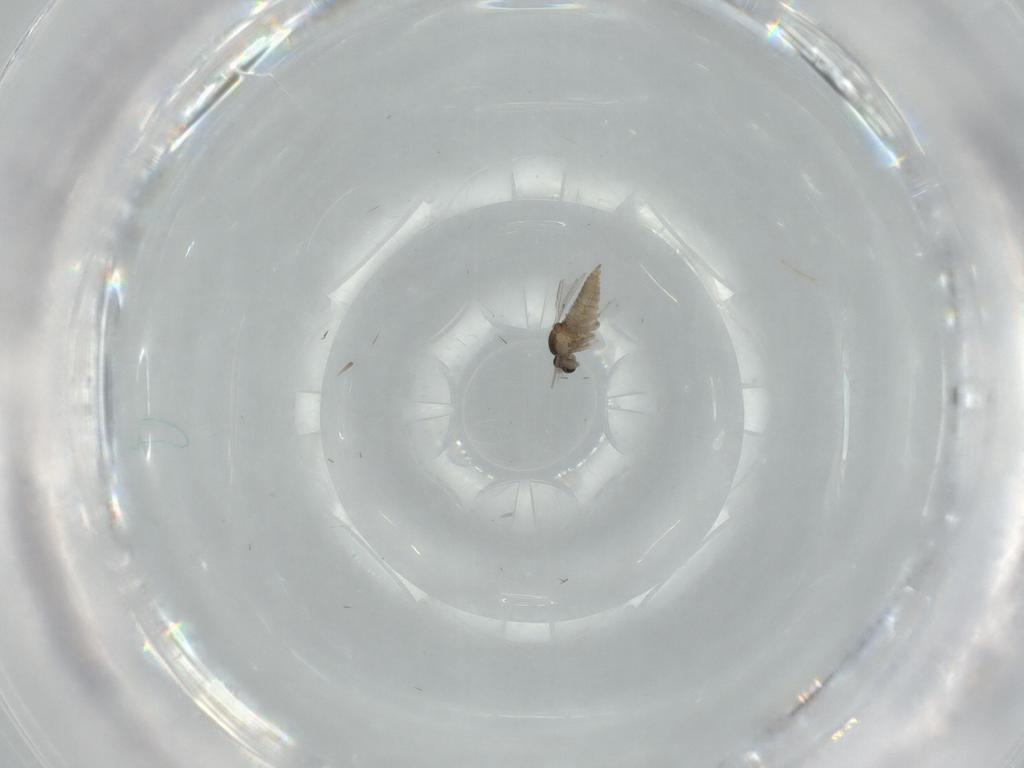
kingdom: Animalia
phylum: Arthropoda
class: Insecta
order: Diptera
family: Cecidomyiidae
